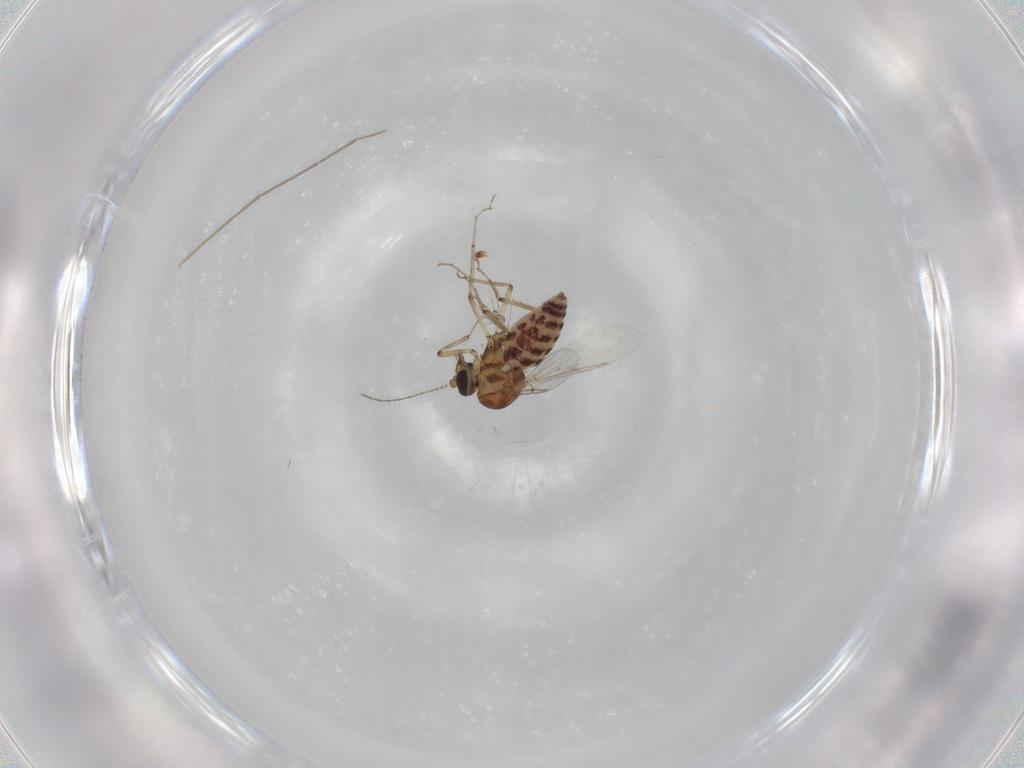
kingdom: Animalia
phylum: Arthropoda
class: Insecta
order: Diptera
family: Ceratopogonidae
